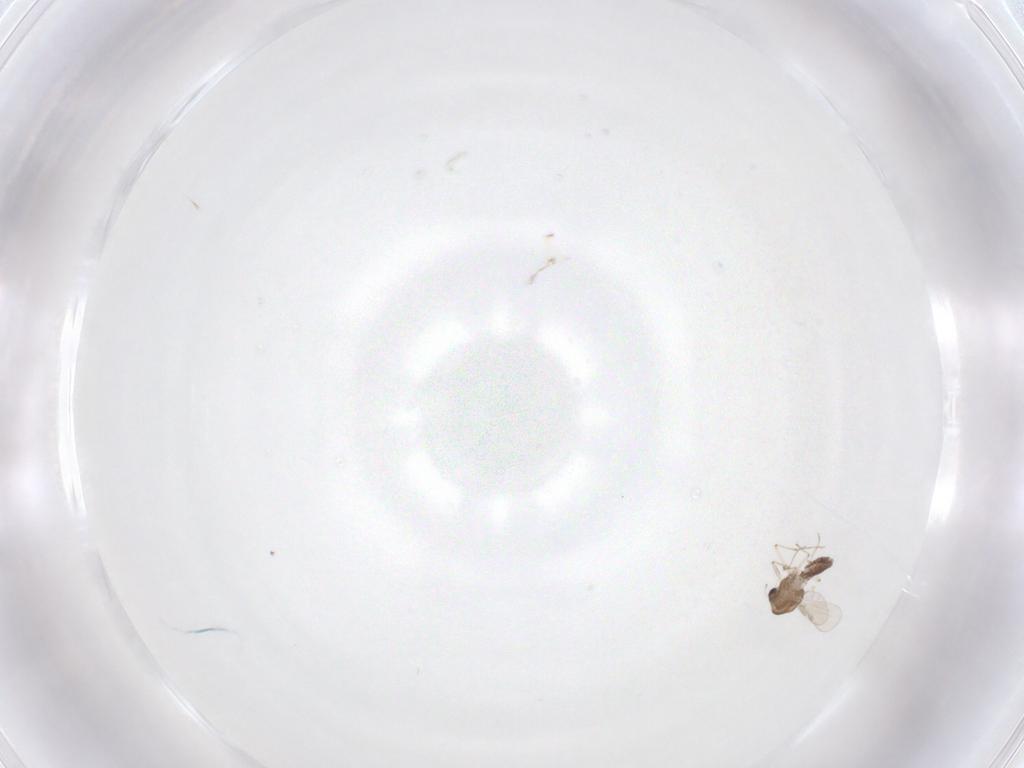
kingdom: Animalia
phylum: Arthropoda
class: Insecta
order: Diptera
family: Chironomidae
